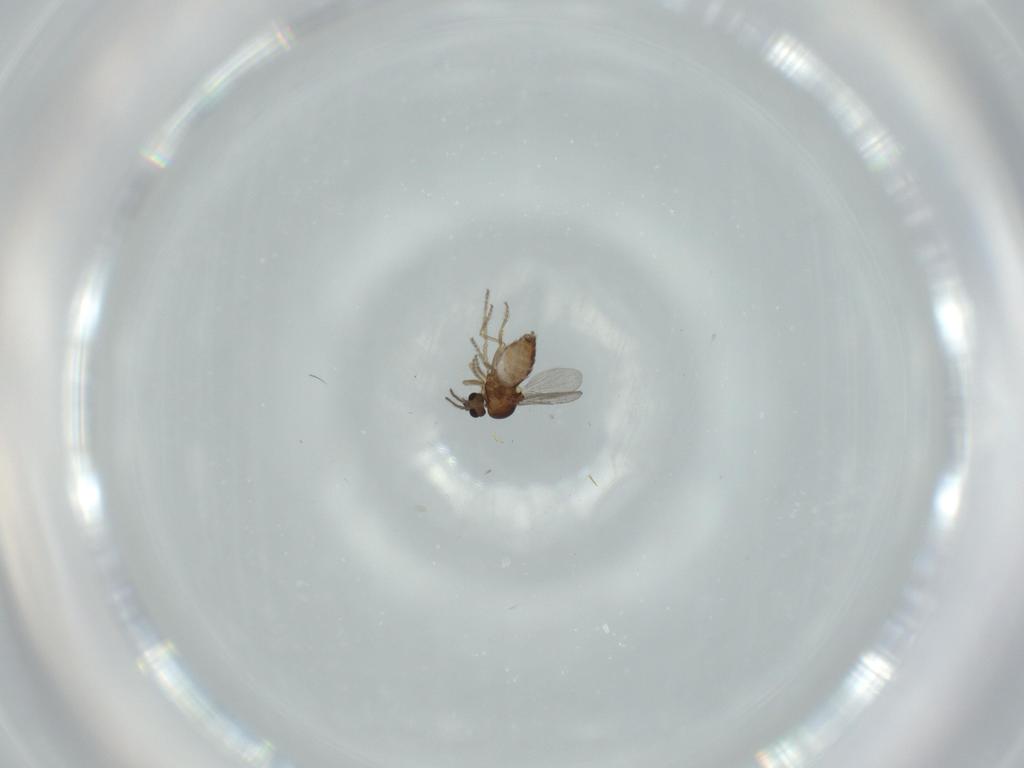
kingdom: Animalia
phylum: Arthropoda
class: Insecta
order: Diptera
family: Ceratopogonidae
